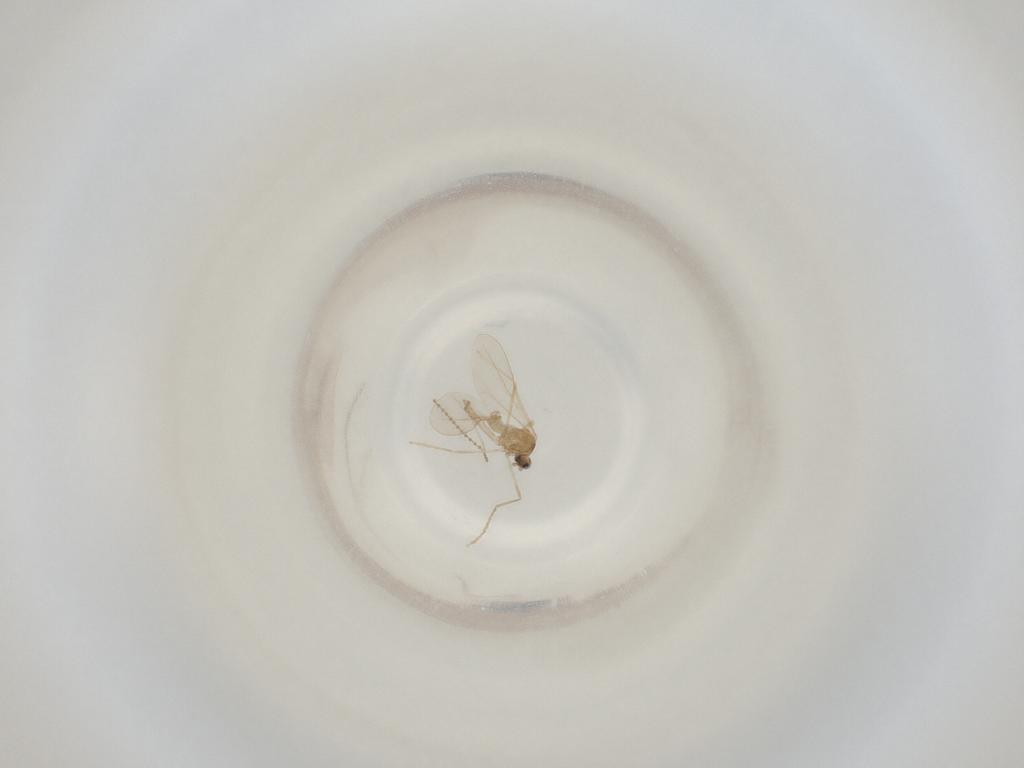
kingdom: Animalia
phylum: Arthropoda
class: Insecta
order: Diptera
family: Cecidomyiidae
